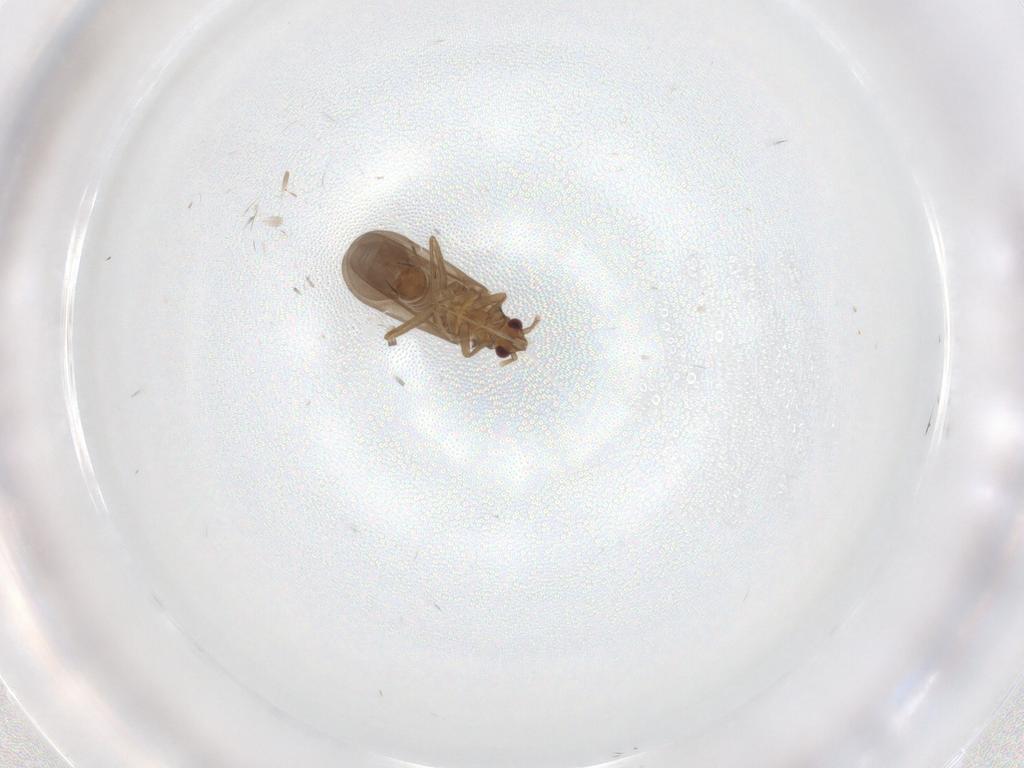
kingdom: Animalia
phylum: Arthropoda
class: Insecta
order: Hemiptera
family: Ceratocombidae
